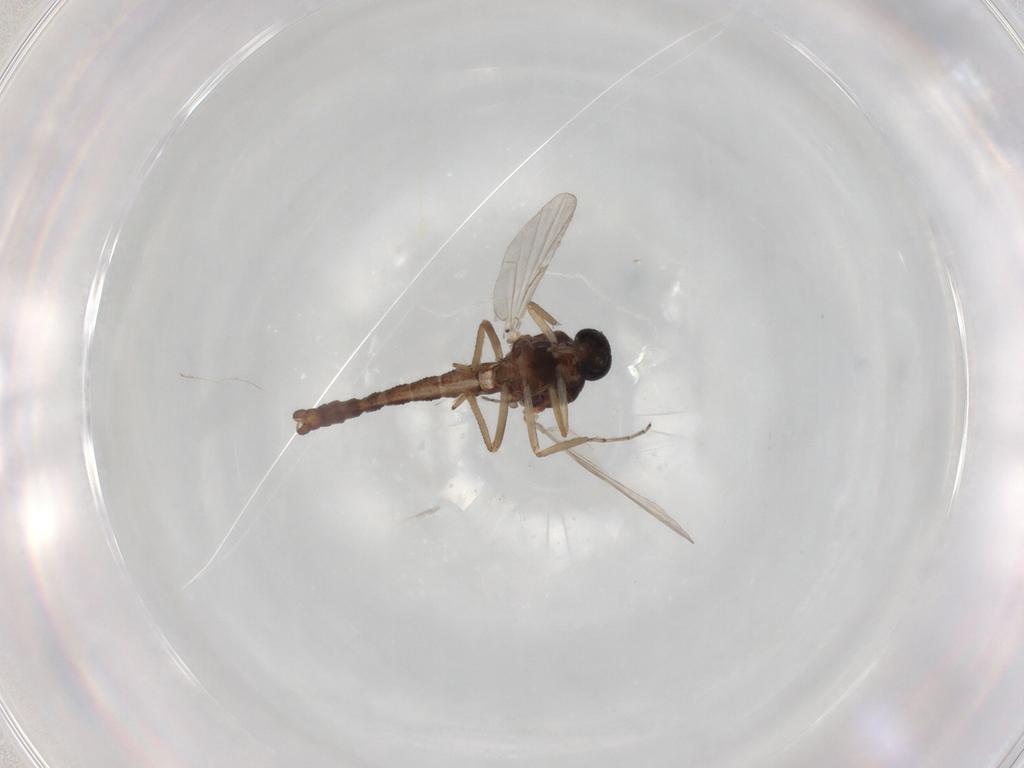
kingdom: Animalia
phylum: Arthropoda
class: Insecta
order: Diptera
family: Ceratopogonidae
